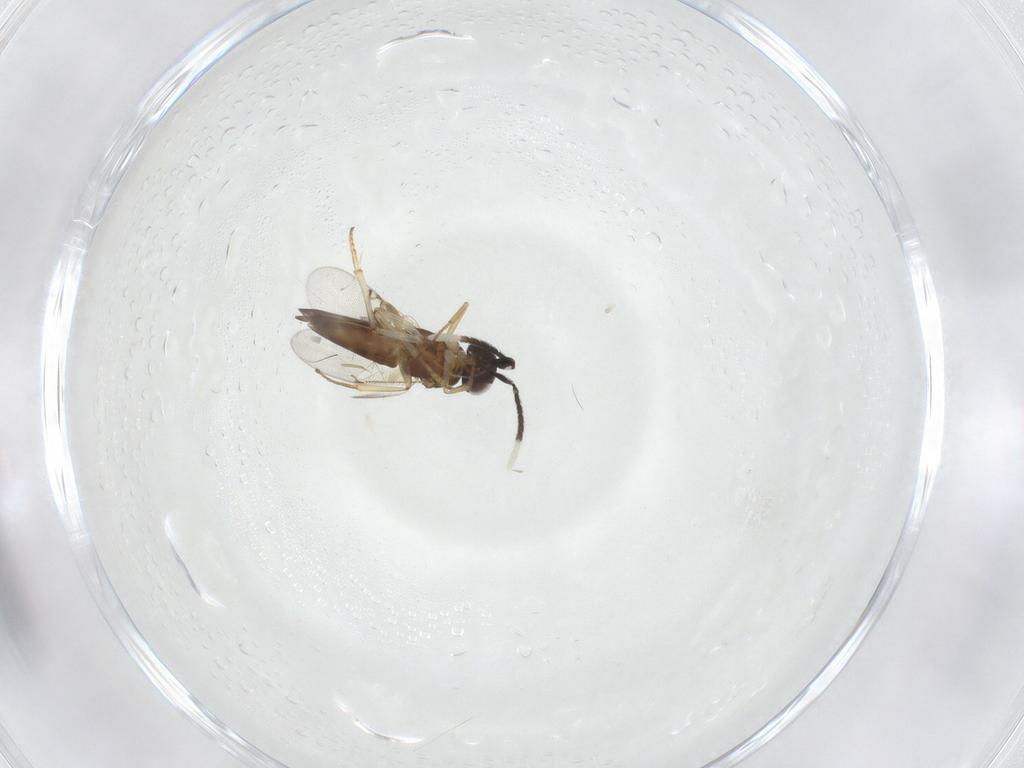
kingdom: Animalia
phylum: Arthropoda
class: Insecta
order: Hymenoptera
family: Encyrtidae
